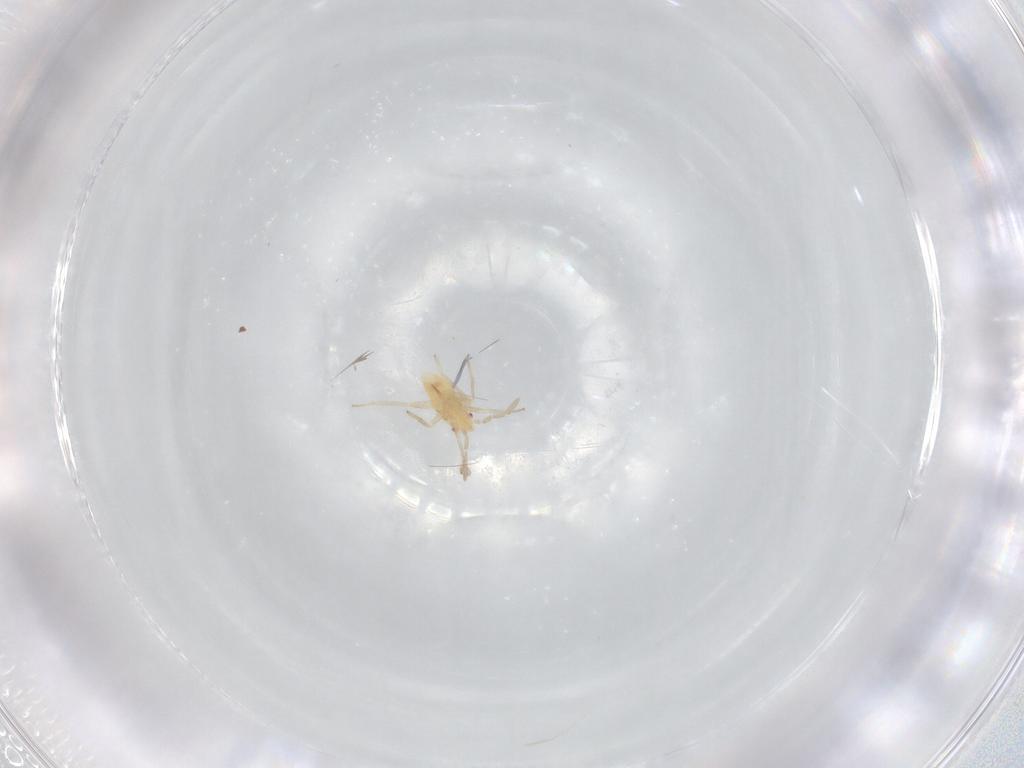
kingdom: Animalia
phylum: Arthropoda
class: Insecta
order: Hemiptera
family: Miridae
